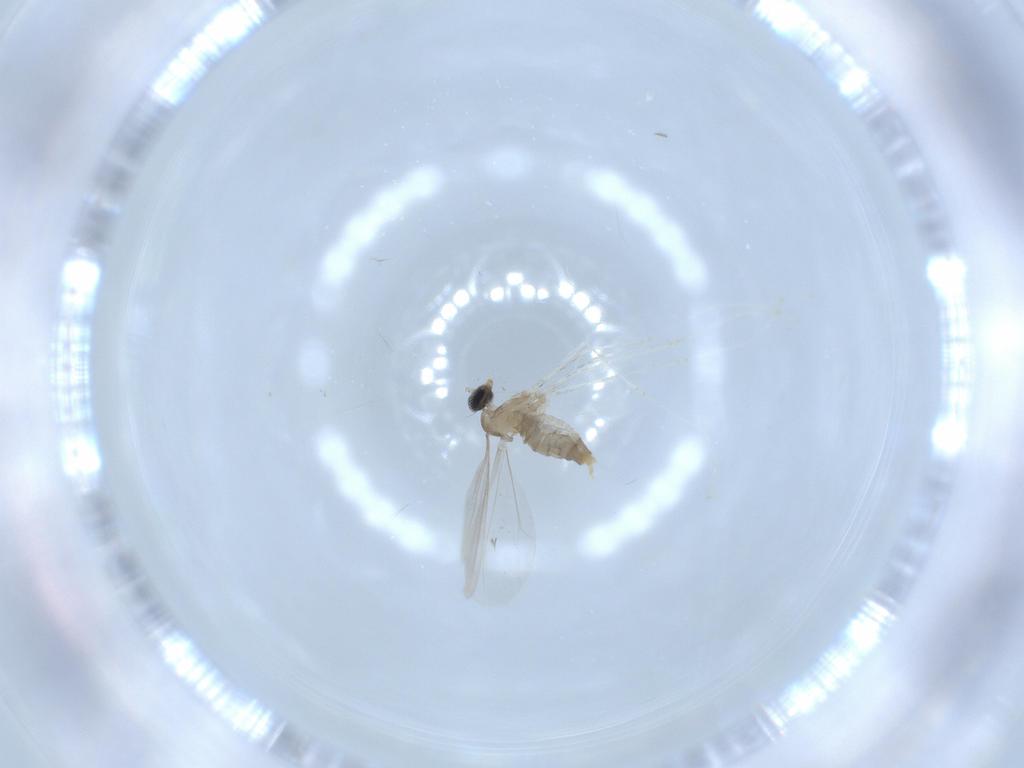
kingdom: Animalia
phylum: Arthropoda
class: Insecta
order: Diptera
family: Cecidomyiidae
